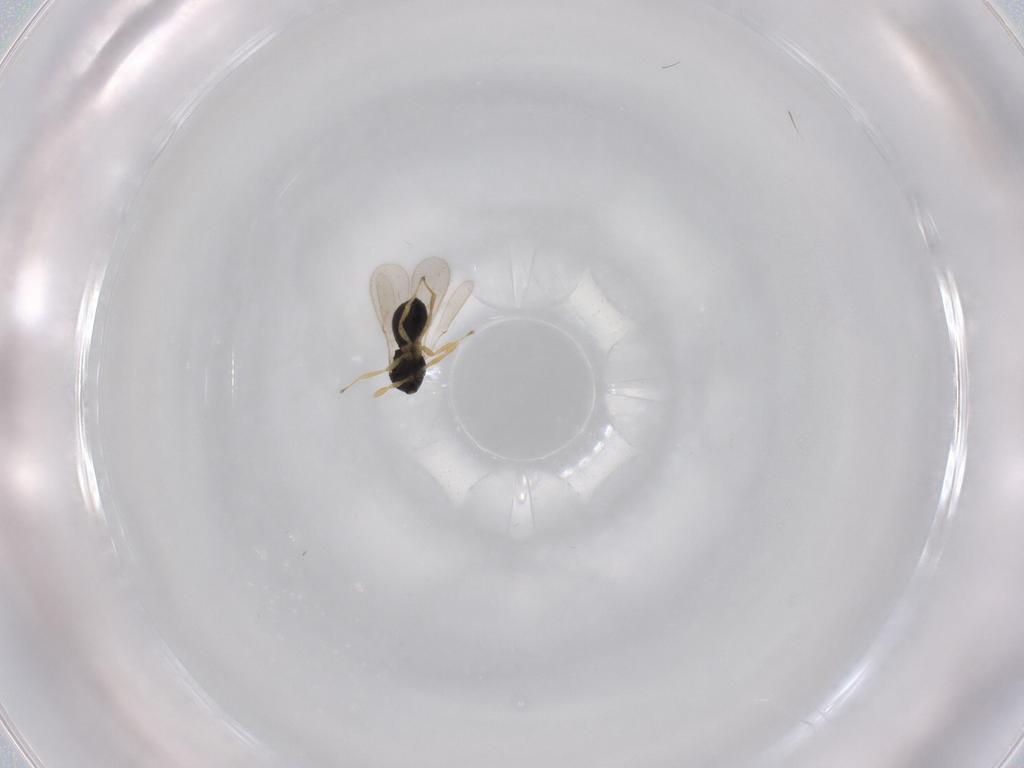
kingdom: Animalia
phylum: Arthropoda
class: Insecta
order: Hymenoptera
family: Scelionidae
